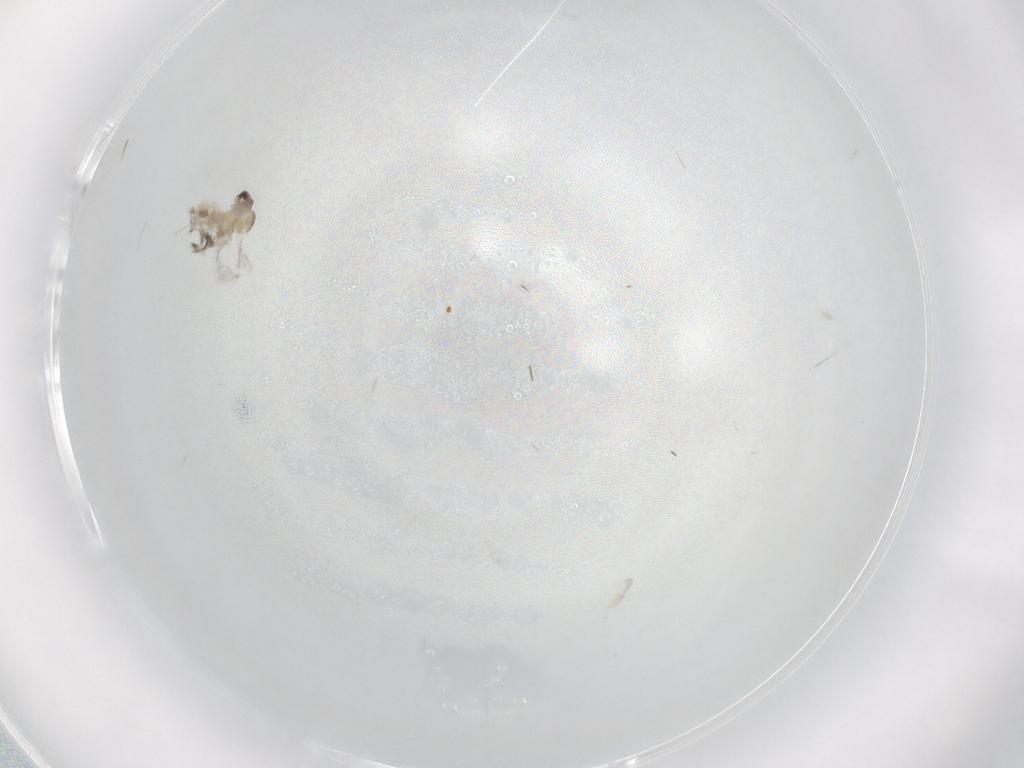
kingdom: Animalia
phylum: Arthropoda
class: Insecta
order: Diptera
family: Cecidomyiidae
